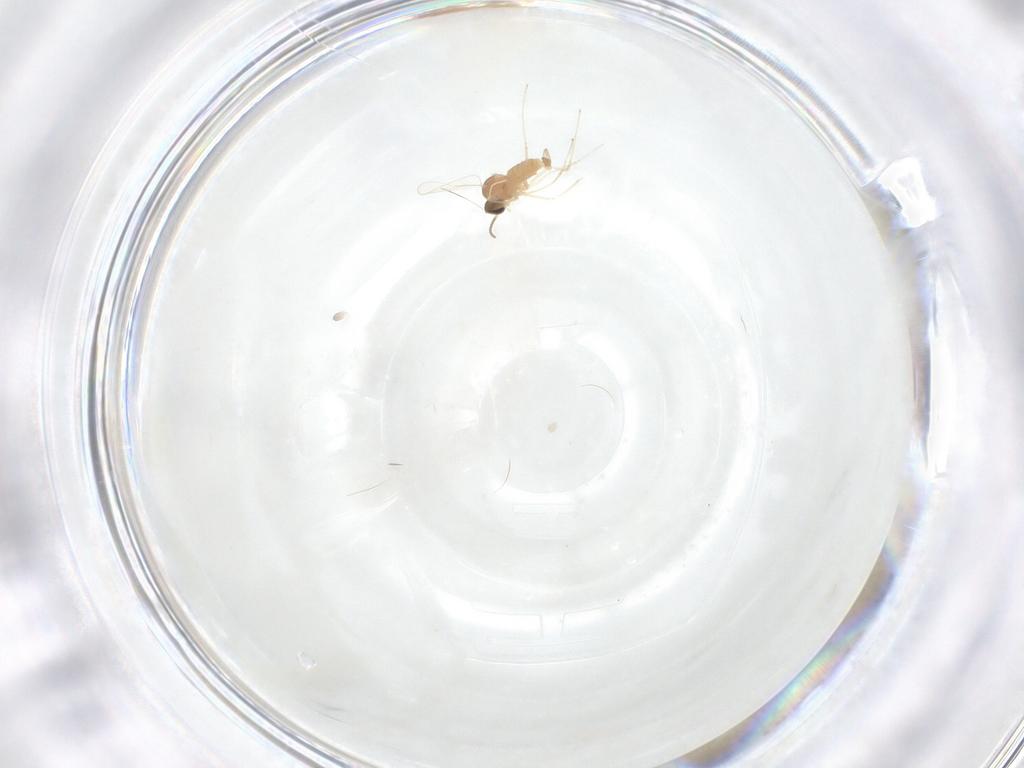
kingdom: Animalia
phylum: Arthropoda
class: Insecta
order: Diptera
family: Cecidomyiidae
